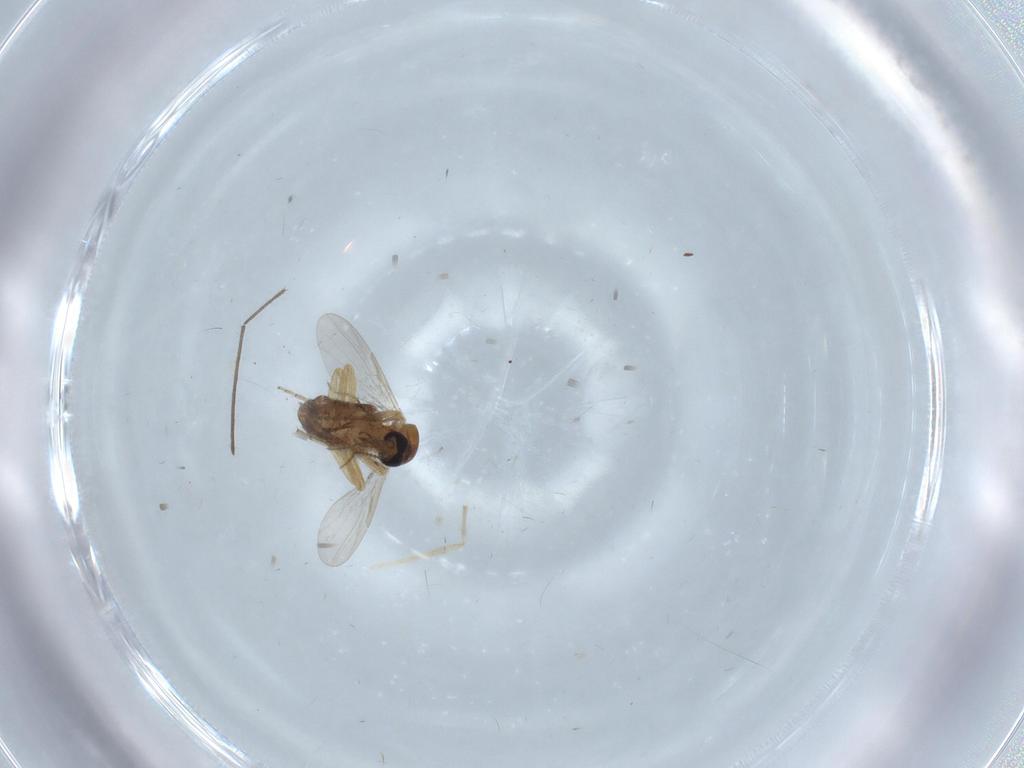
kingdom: Animalia
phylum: Arthropoda
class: Insecta
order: Diptera
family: Ceratopogonidae
